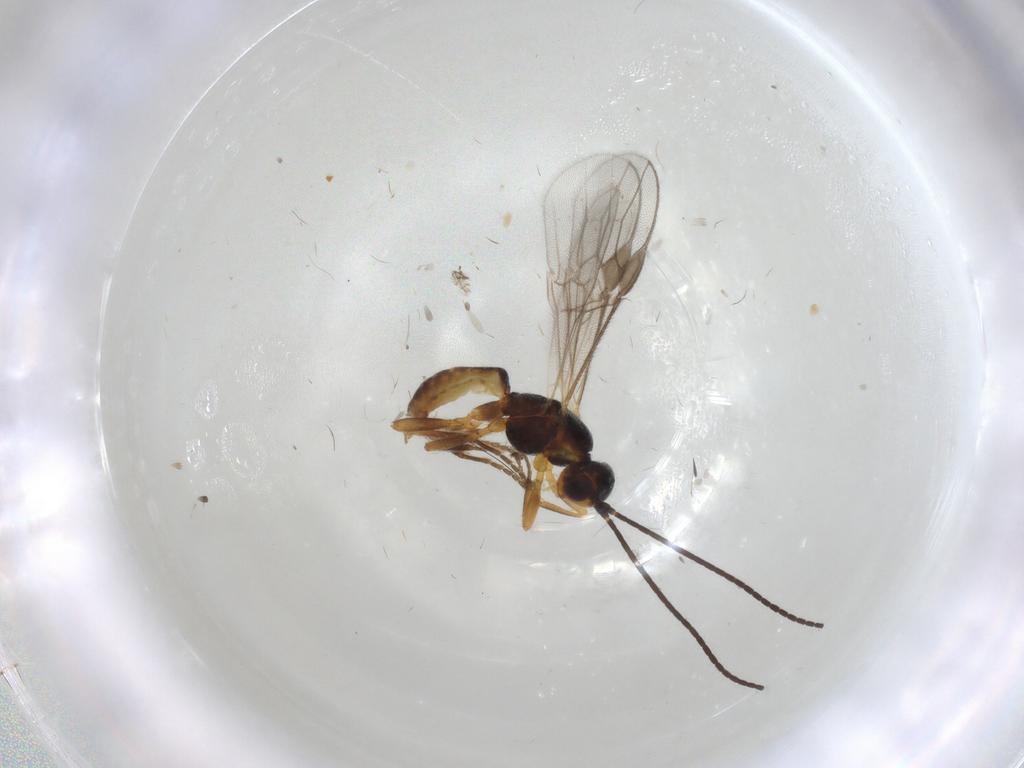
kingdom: Animalia
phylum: Arthropoda
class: Insecta
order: Hymenoptera
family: Braconidae
